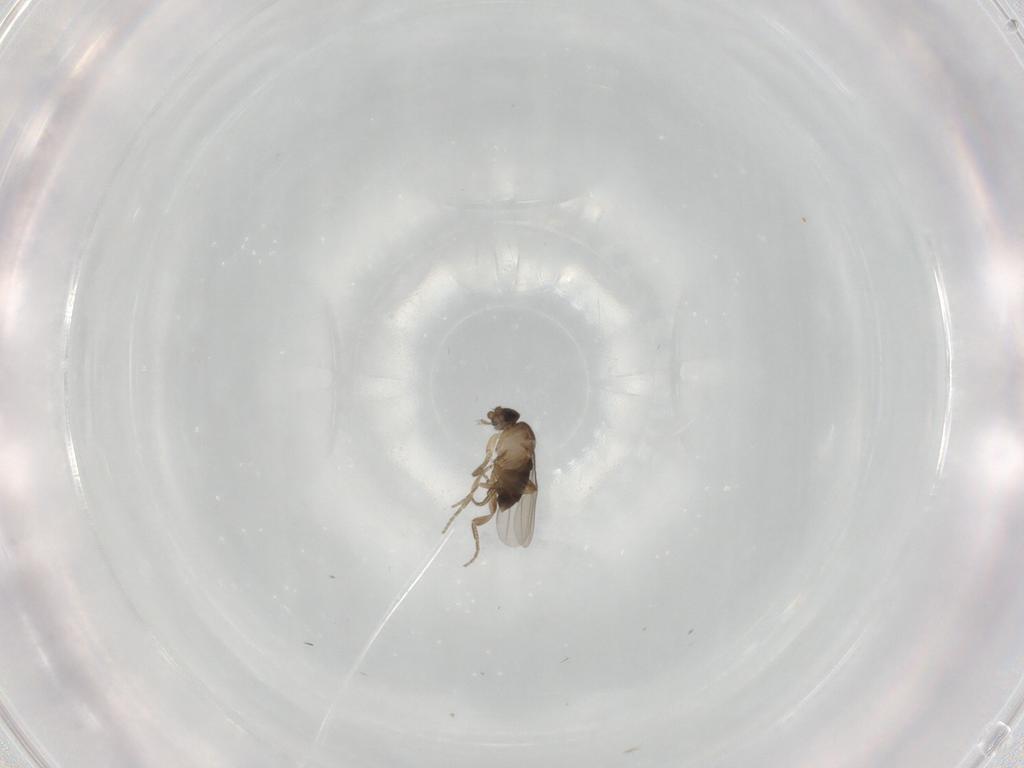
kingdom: Animalia
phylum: Arthropoda
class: Insecta
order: Diptera
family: Phoridae
